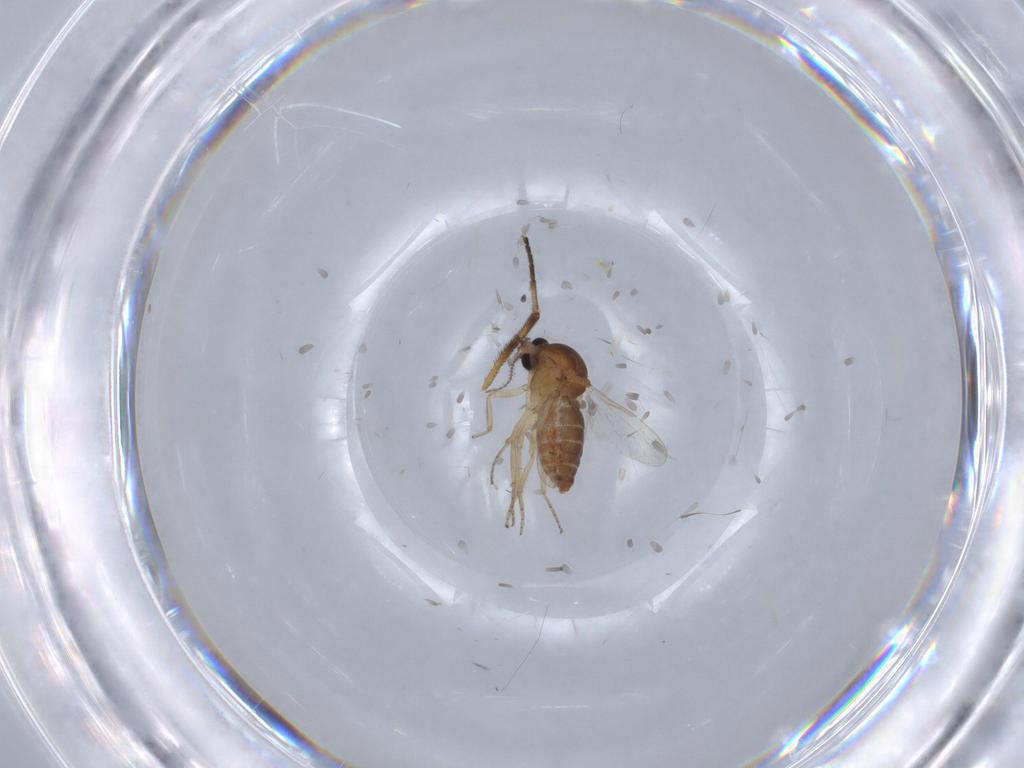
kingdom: Animalia
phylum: Arthropoda
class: Insecta
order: Diptera
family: Ceratopogonidae
